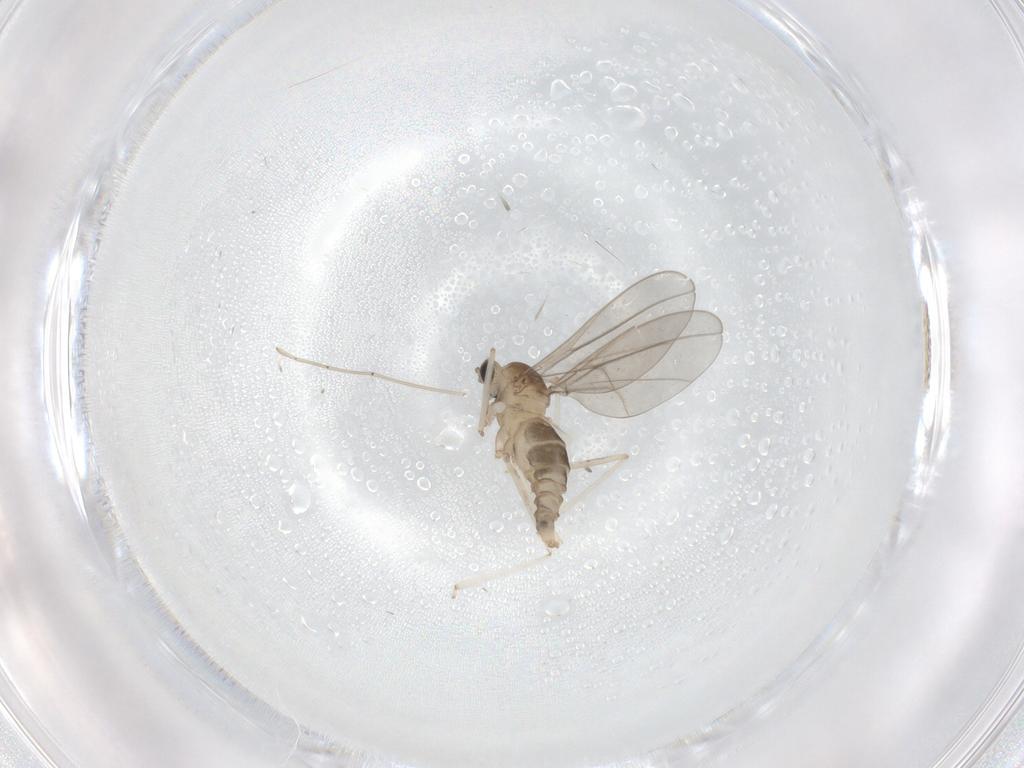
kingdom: Animalia
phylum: Arthropoda
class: Insecta
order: Diptera
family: Cecidomyiidae
